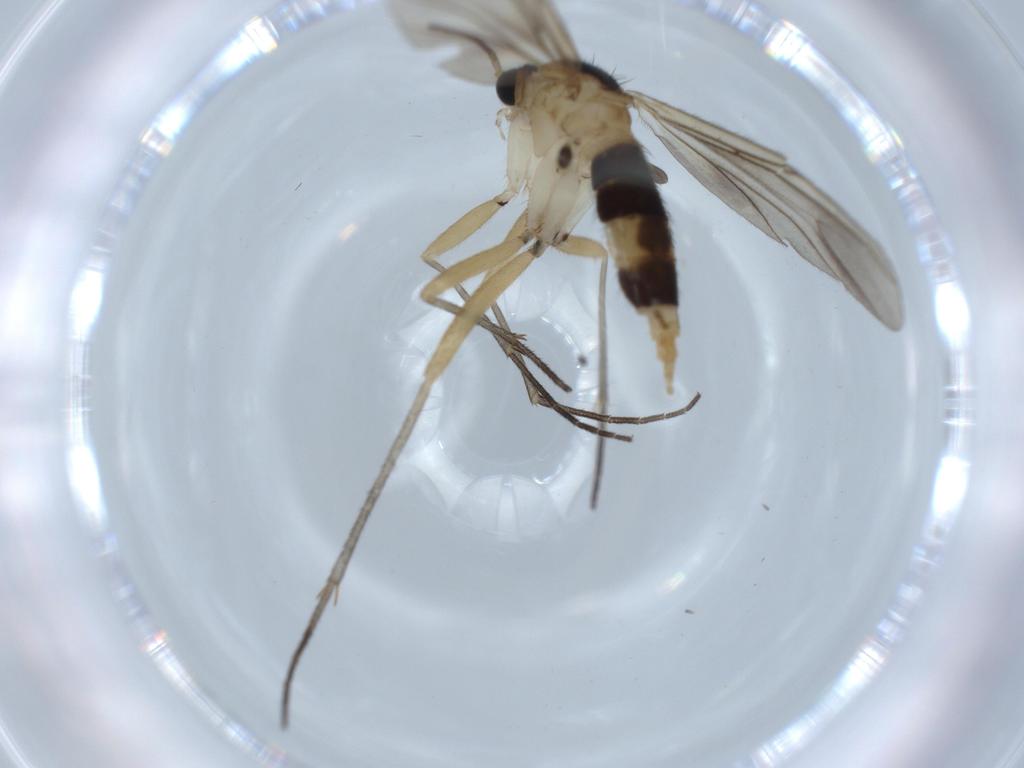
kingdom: Animalia
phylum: Arthropoda
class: Insecta
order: Diptera
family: Sciaridae
